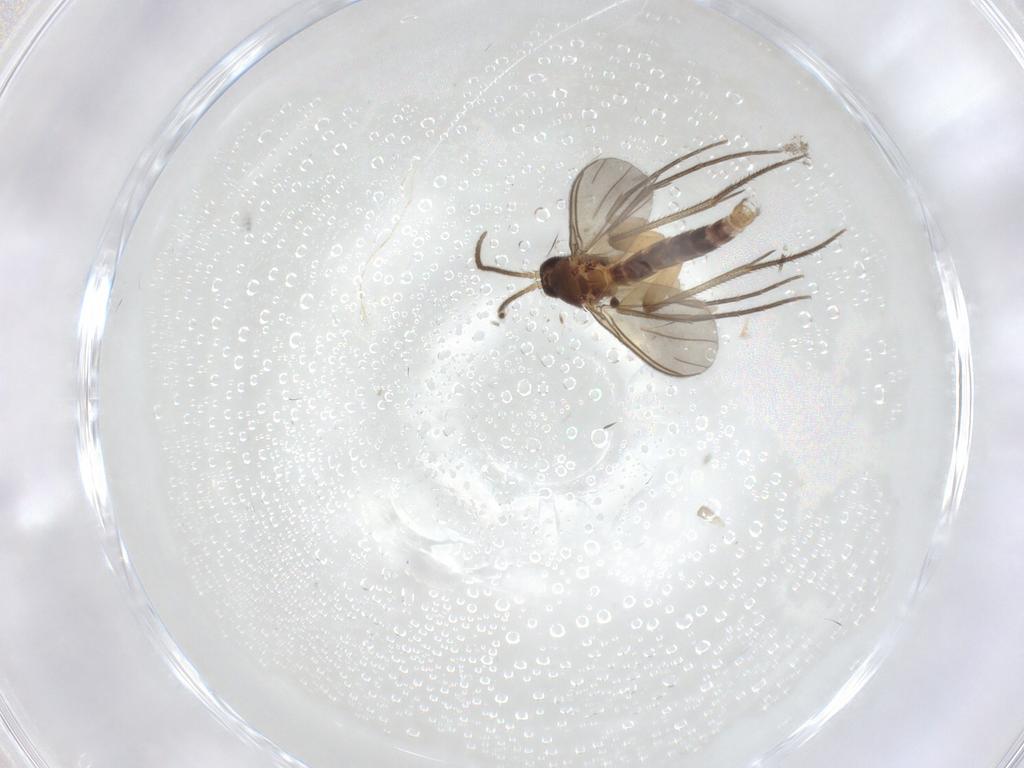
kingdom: Animalia
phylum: Arthropoda
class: Insecta
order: Diptera
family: Mycetophilidae
